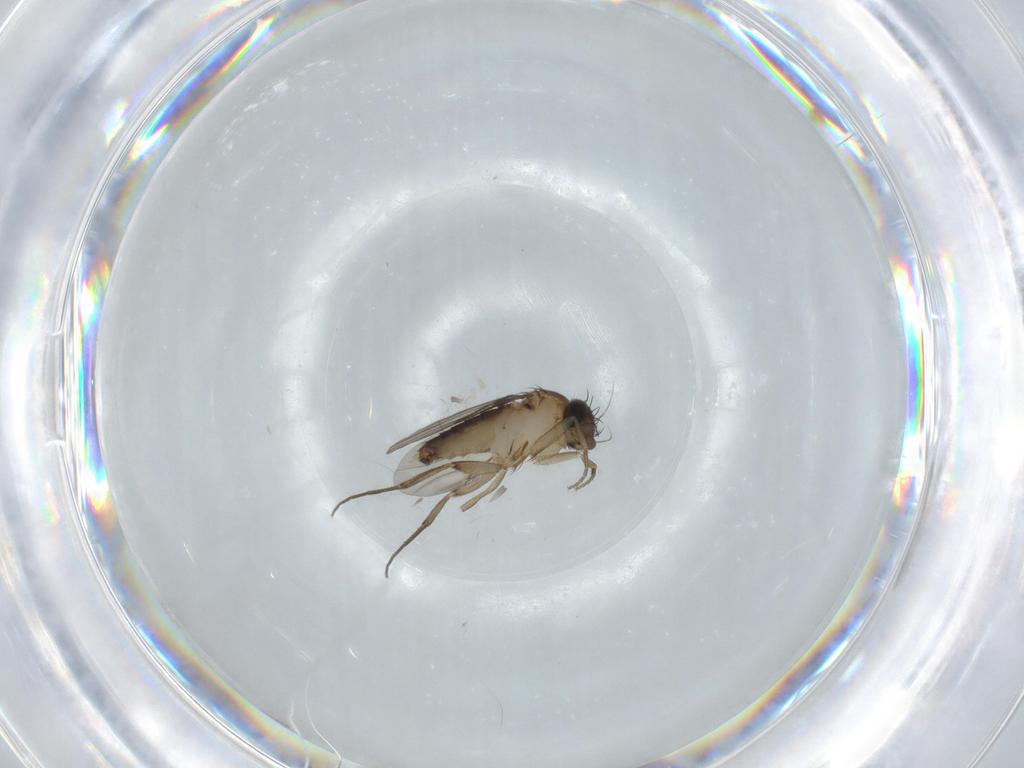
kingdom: Animalia
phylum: Arthropoda
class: Insecta
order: Diptera
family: Phoridae
